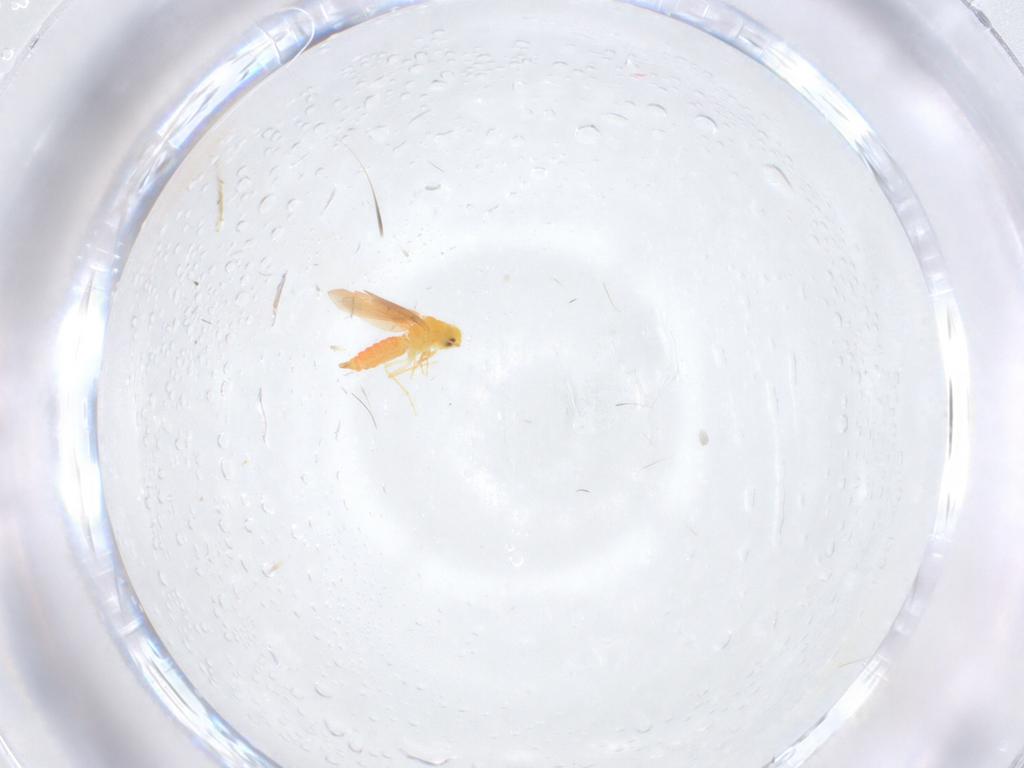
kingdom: Animalia
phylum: Arthropoda
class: Insecta
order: Hemiptera
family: Aleyrodidae
